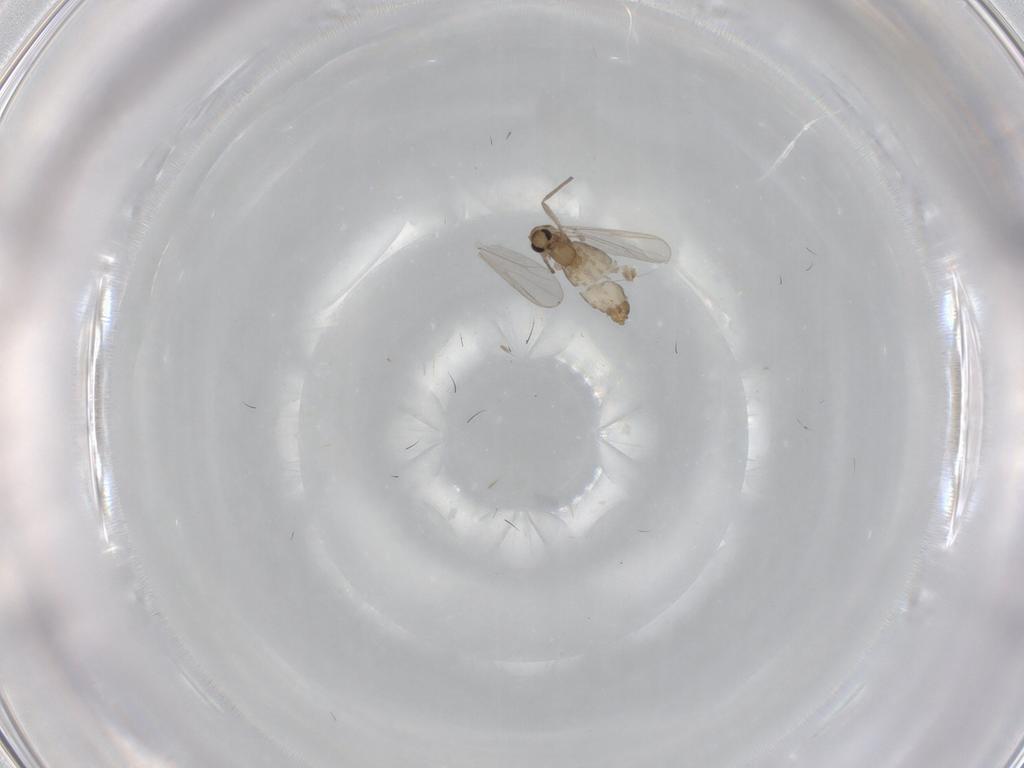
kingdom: Animalia
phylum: Arthropoda
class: Insecta
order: Diptera
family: Chironomidae
